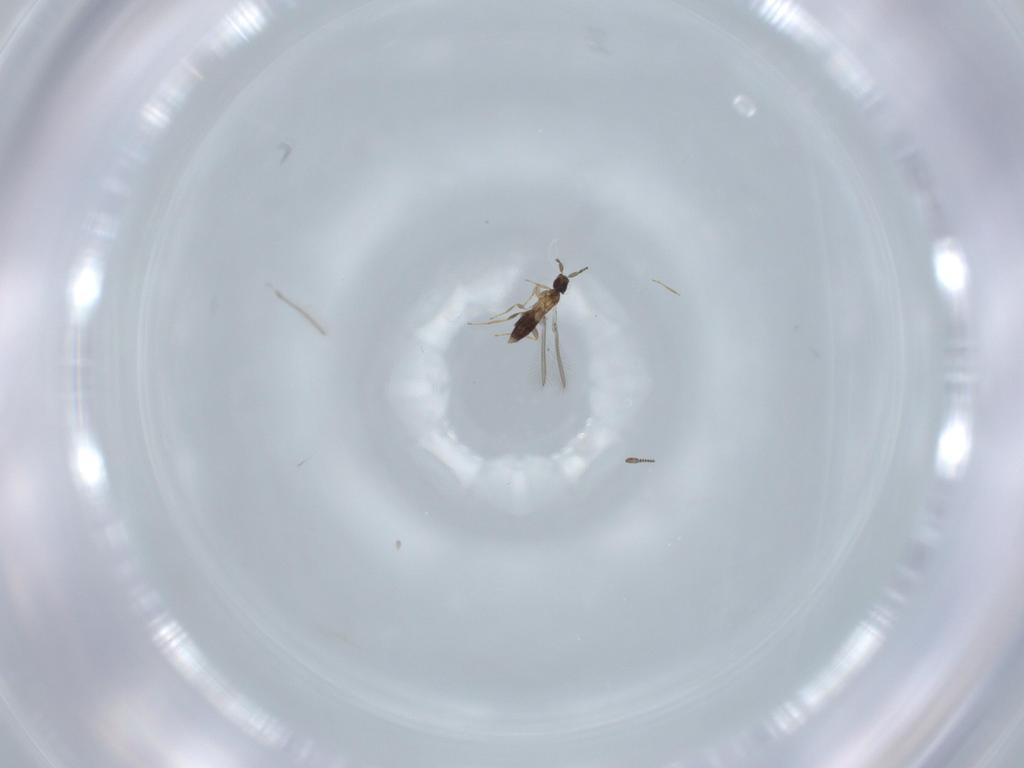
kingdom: Animalia
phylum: Arthropoda
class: Insecta
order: Hymenoptera
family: Mymaridae
